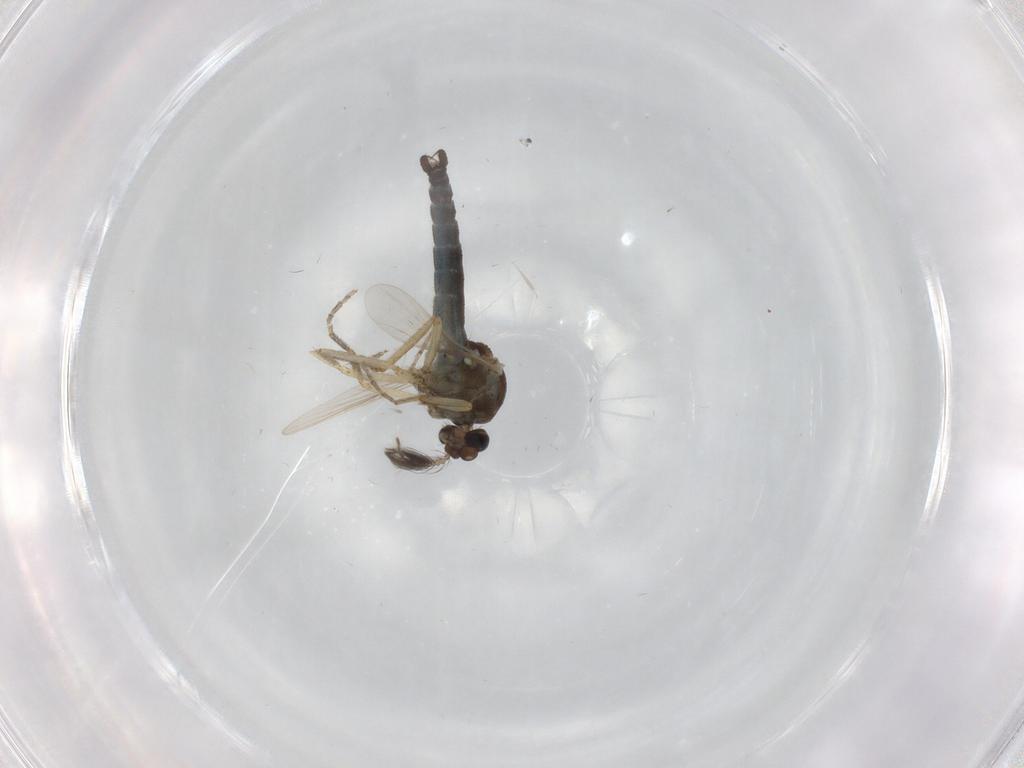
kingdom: Animalia
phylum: Arthropoda
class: Insecta
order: Diptera
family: Ceratopogonidae
